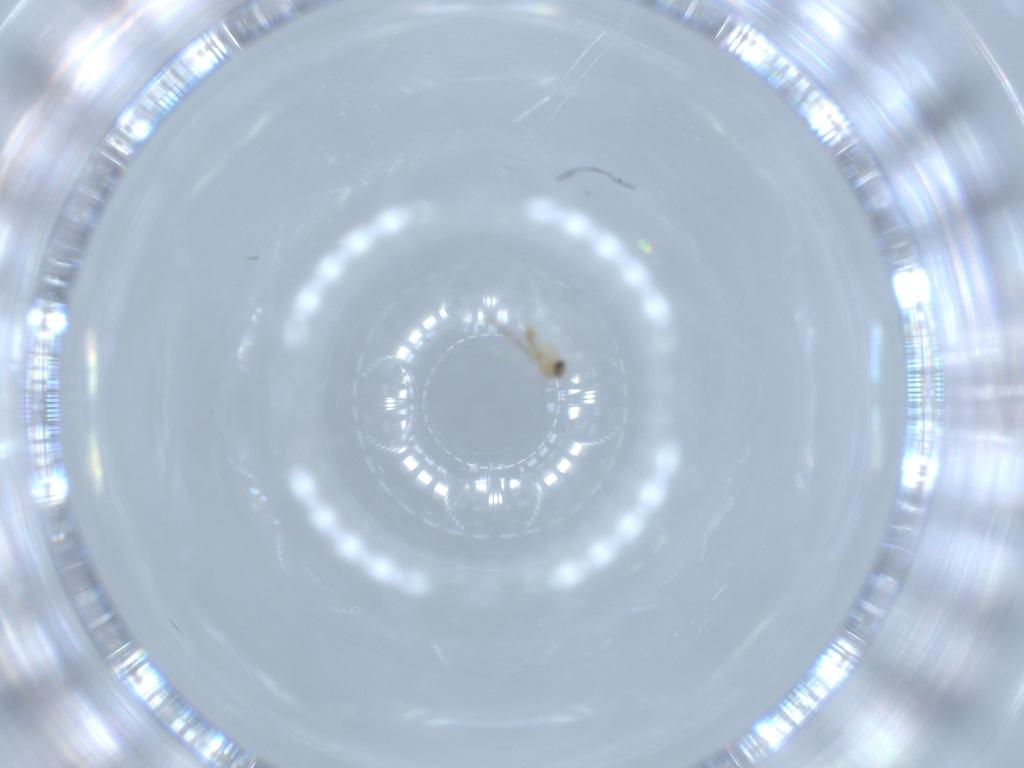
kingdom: Animalia
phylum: Arthropoda
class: Insecta
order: Diptera
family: Cecidomyiidae
